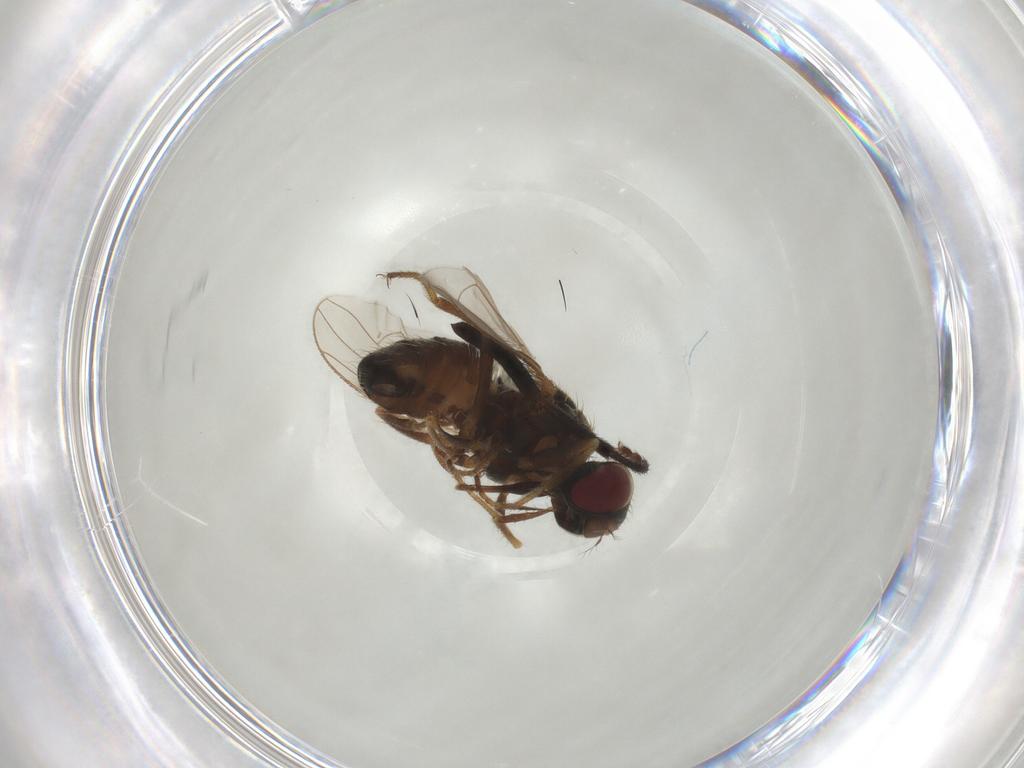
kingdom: Animalia
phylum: Arthropoda
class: Insecta
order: Diptera
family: Muscidae
